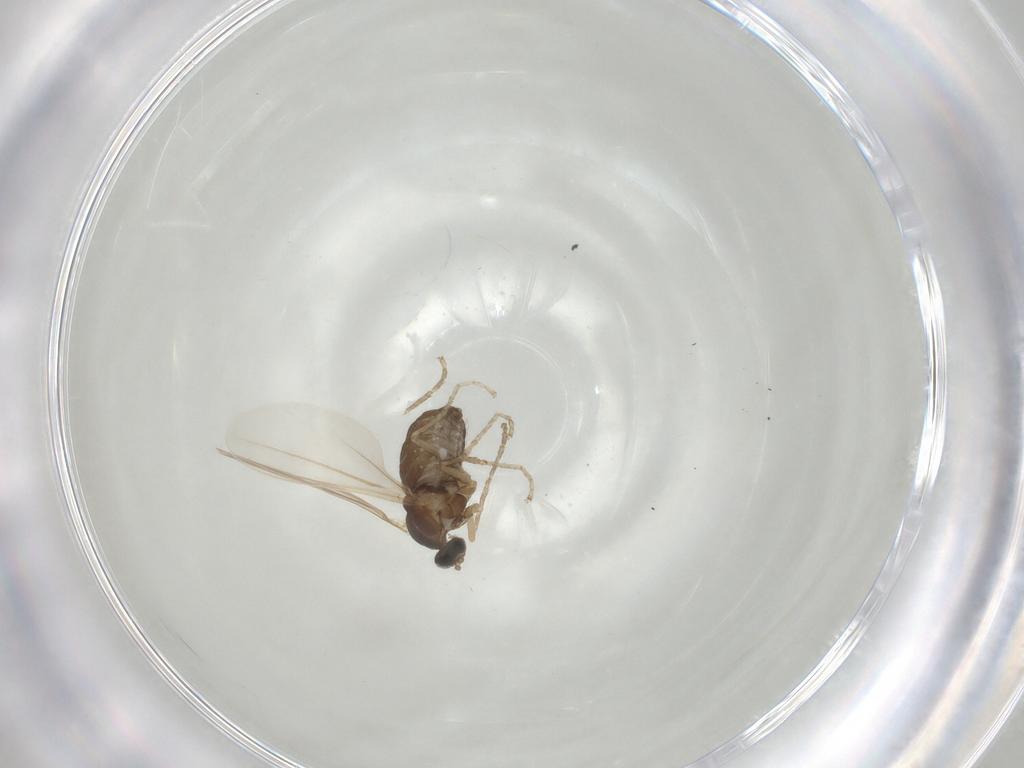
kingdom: Animalia
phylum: Arthropoda
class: Insecta
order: Diptera
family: Cecidomyiidae
